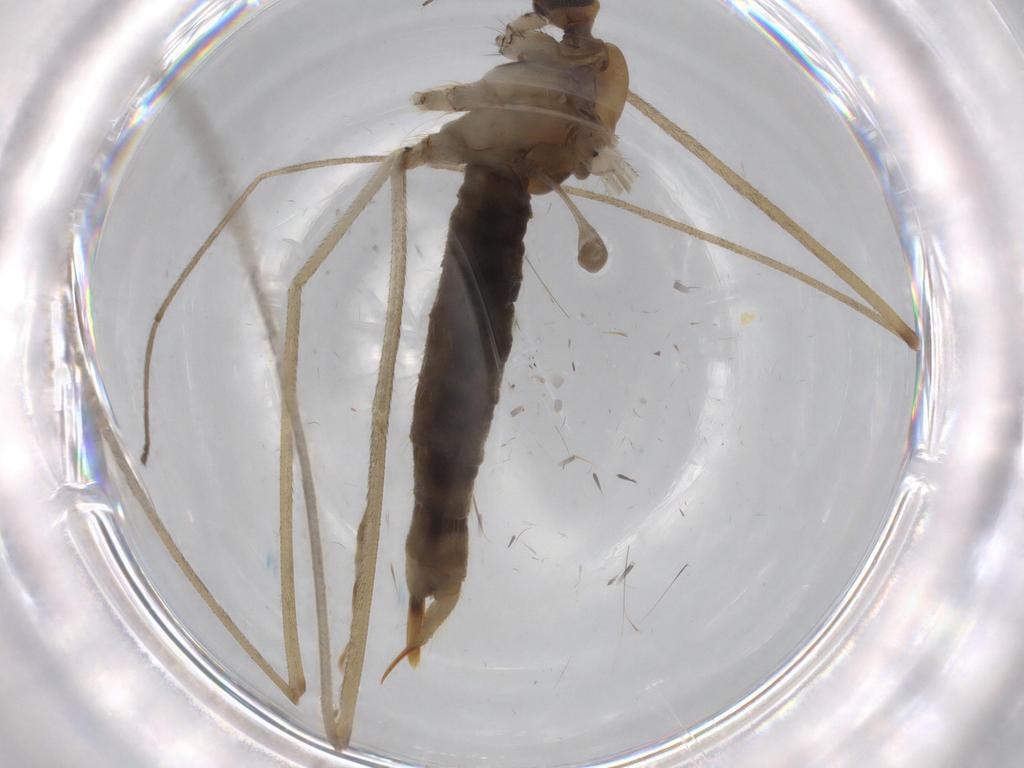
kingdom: Animalia
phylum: Arthropoda
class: Insecta
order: Diptera
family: Limoniidae
